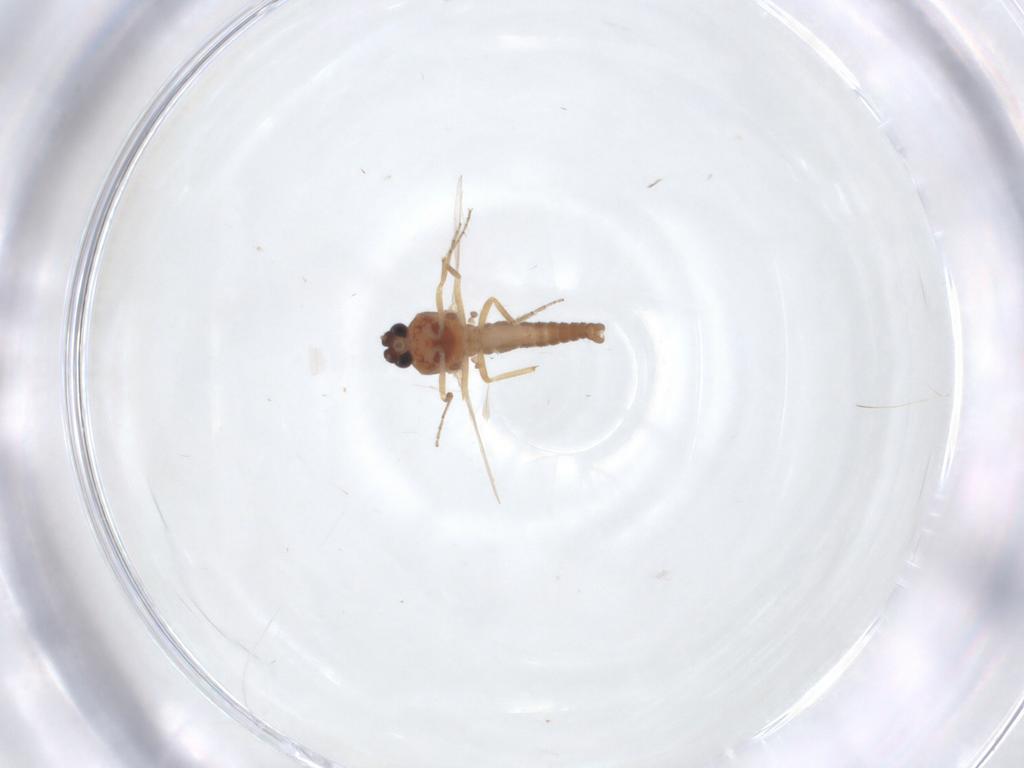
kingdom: Animalia
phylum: Arthropoda
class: Insecta
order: Diptera
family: Ceratopogonidae
